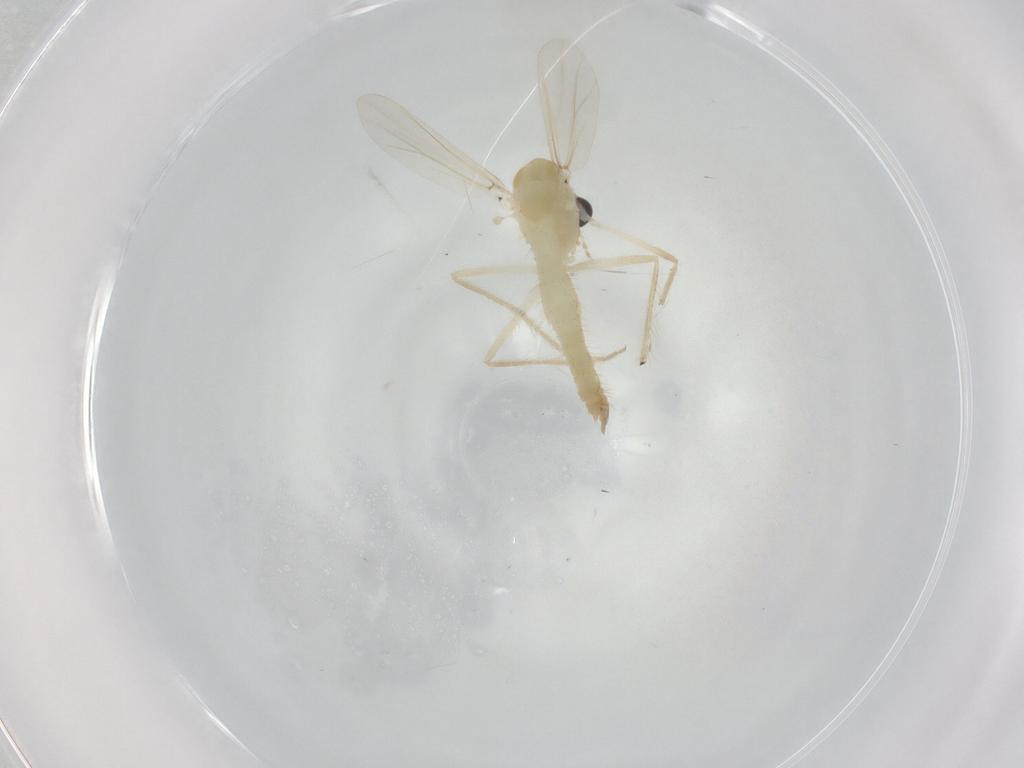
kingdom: Animalia
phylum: Arthropoda
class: Insecta
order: Diptera
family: Chironomidae
